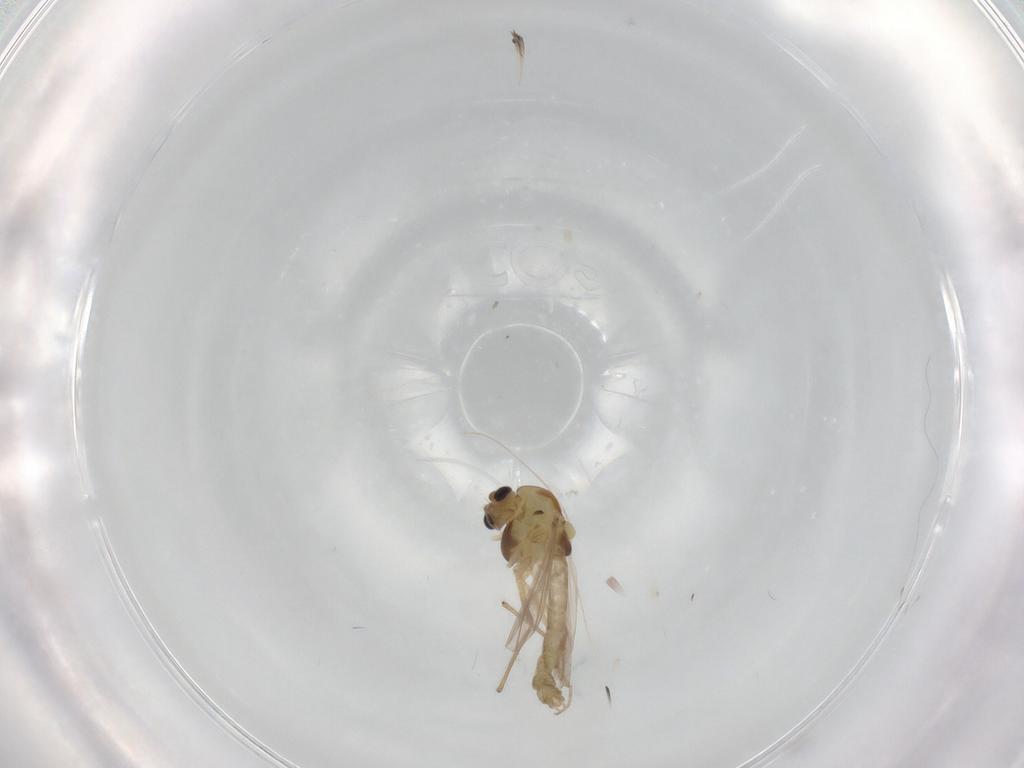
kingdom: Animalia
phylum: Arthropoda
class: Insecta
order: Diptera
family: Chironomidae
